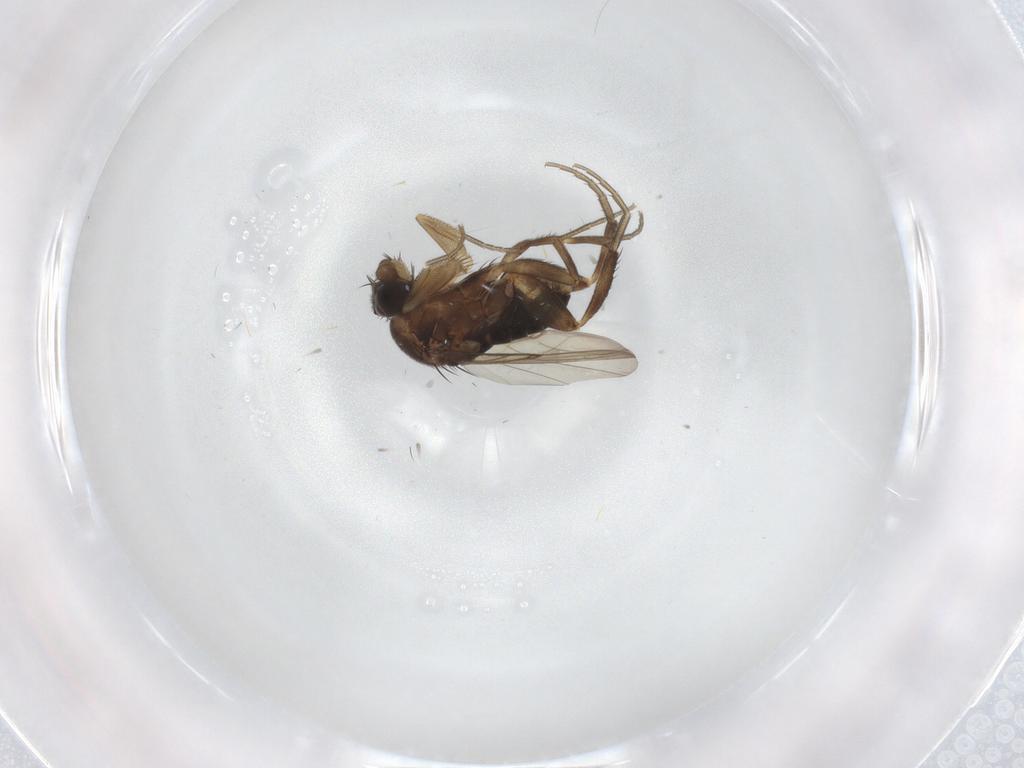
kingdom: Animalia
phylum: Arthropoda
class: Insecta
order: Diptera
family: Phoridae
